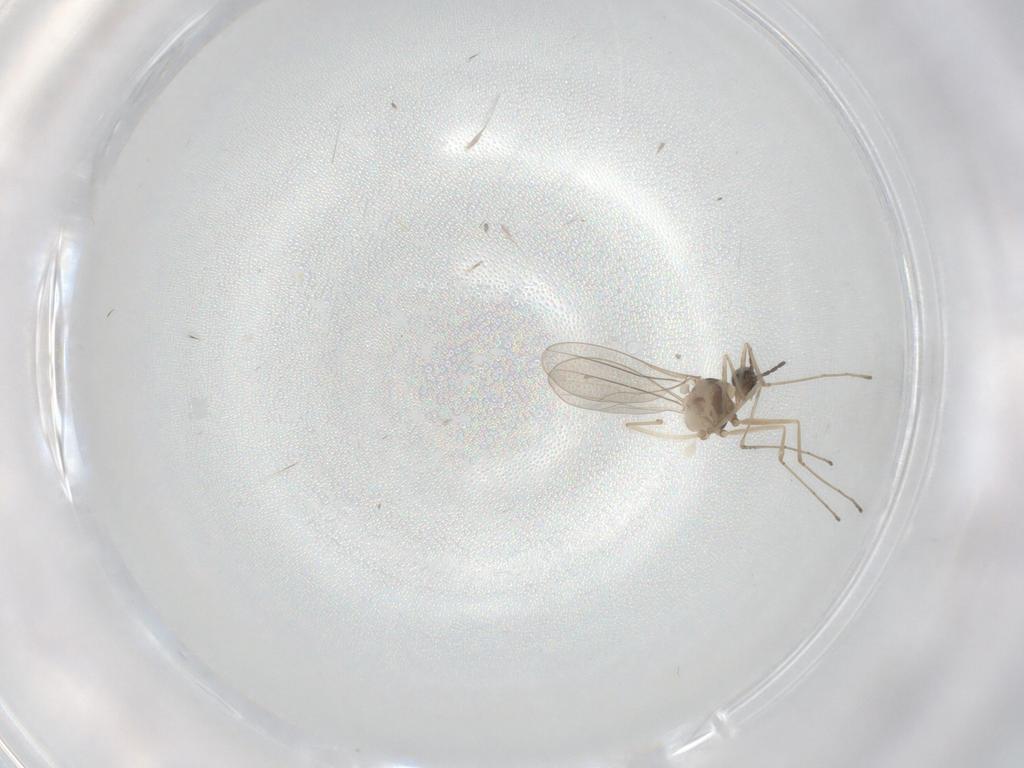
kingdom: Animalia
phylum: Arthropoda
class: Insecta
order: Diptera
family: Cecidomyiidae
